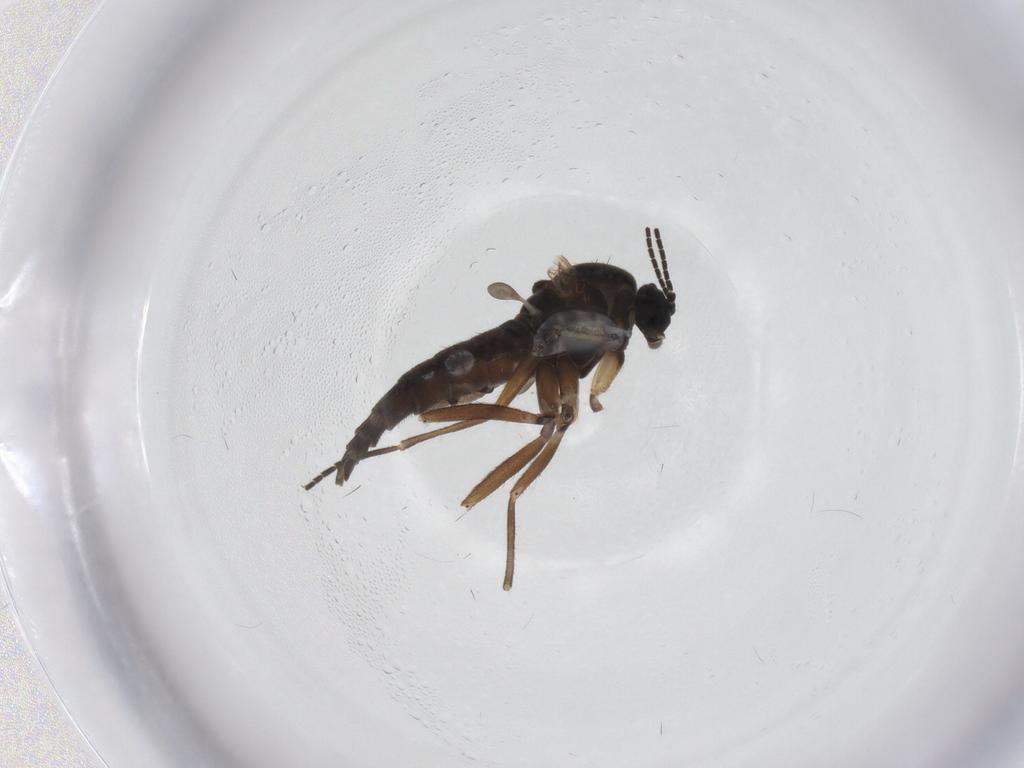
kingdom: Animalia
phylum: Arthropoda
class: Insecta
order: Diptera
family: Sciaridae
